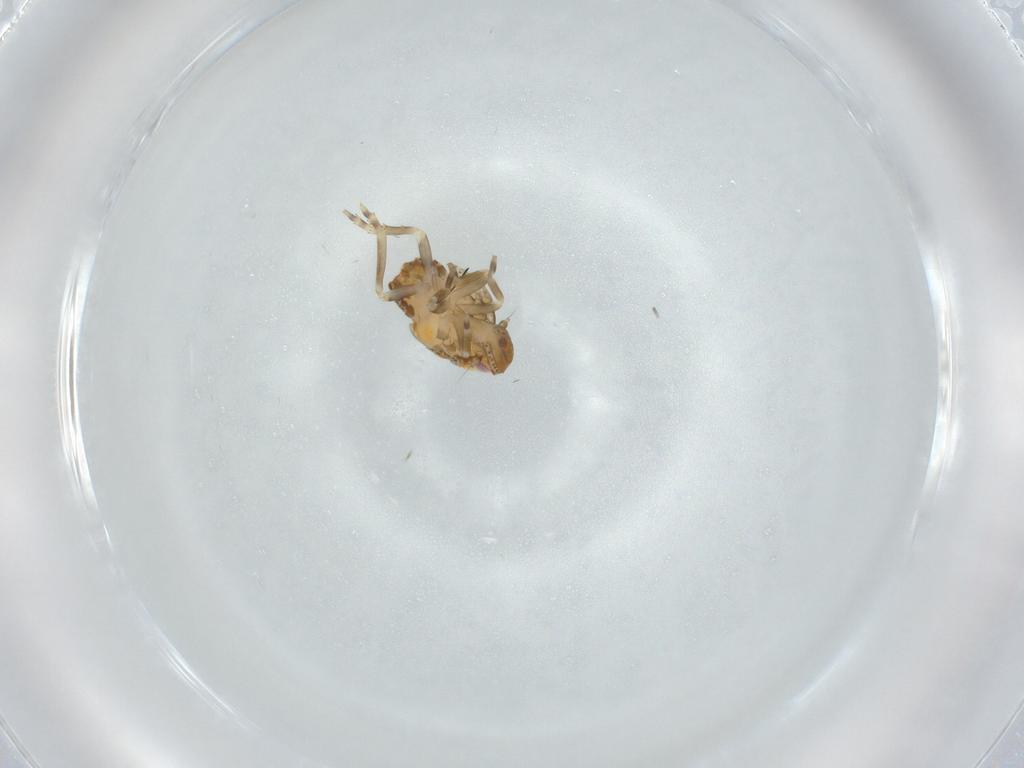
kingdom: Animalia
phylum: Arthropoda
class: Insecta
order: Hemiptera
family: Flatidae
